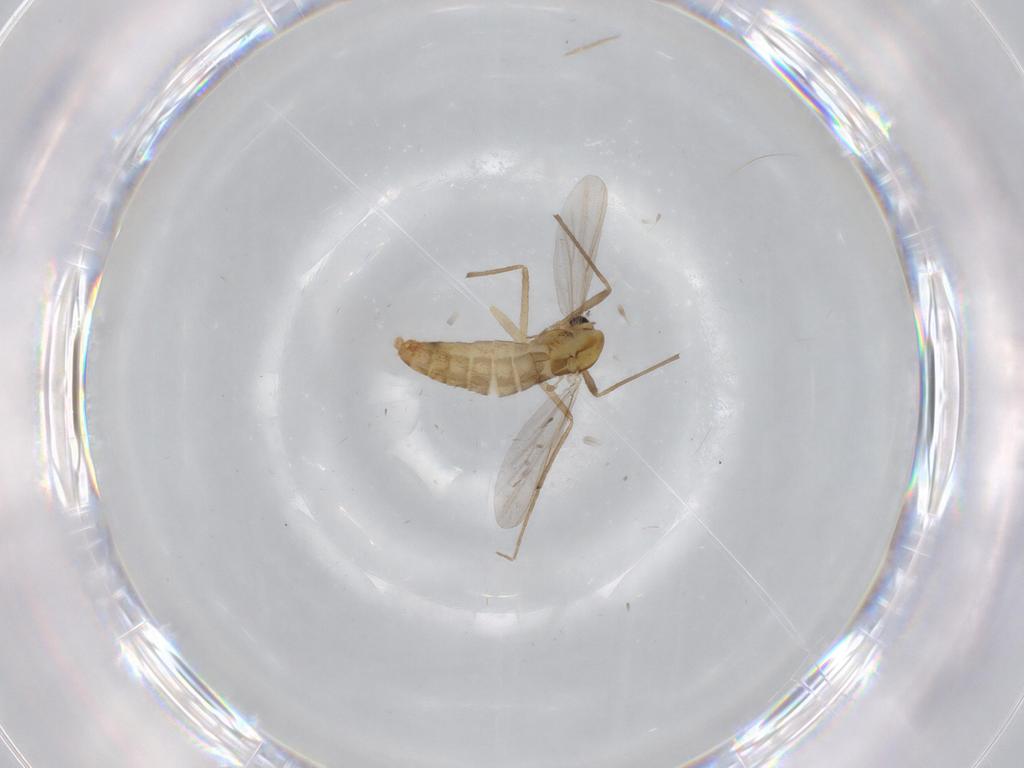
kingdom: Animalia
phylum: Arthropoda
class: Insecta
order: Diptera
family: Chironomidae
